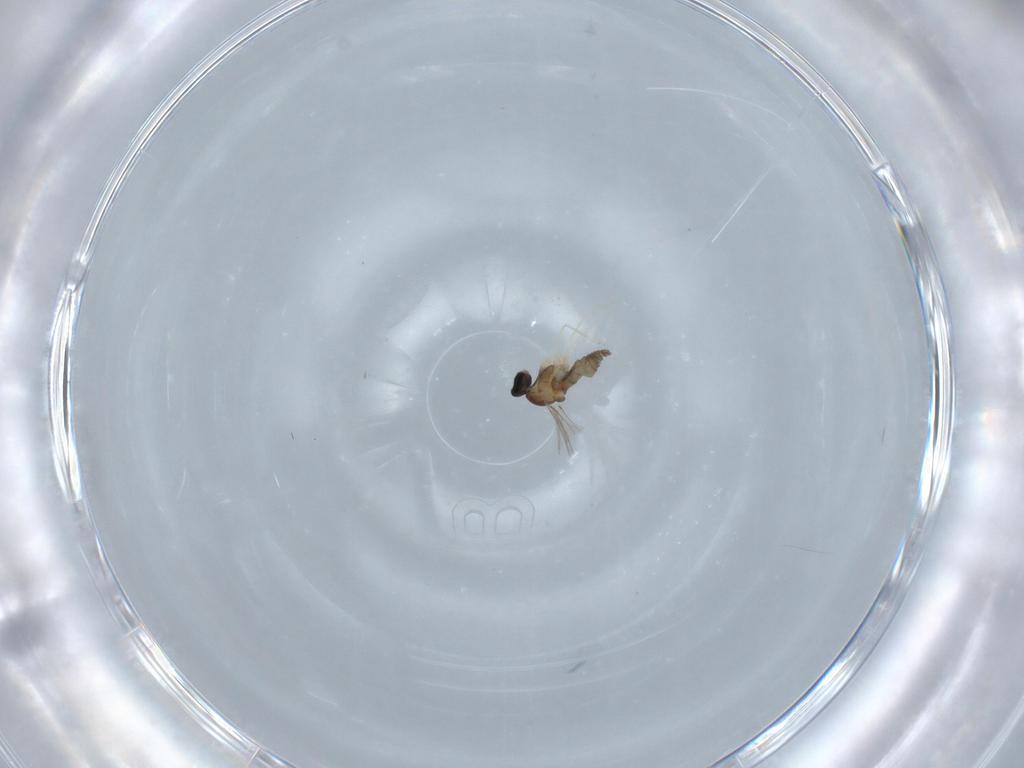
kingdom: Animalia
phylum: Arthropoda
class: Insecta
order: Diptera
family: Cecidomyiidae
